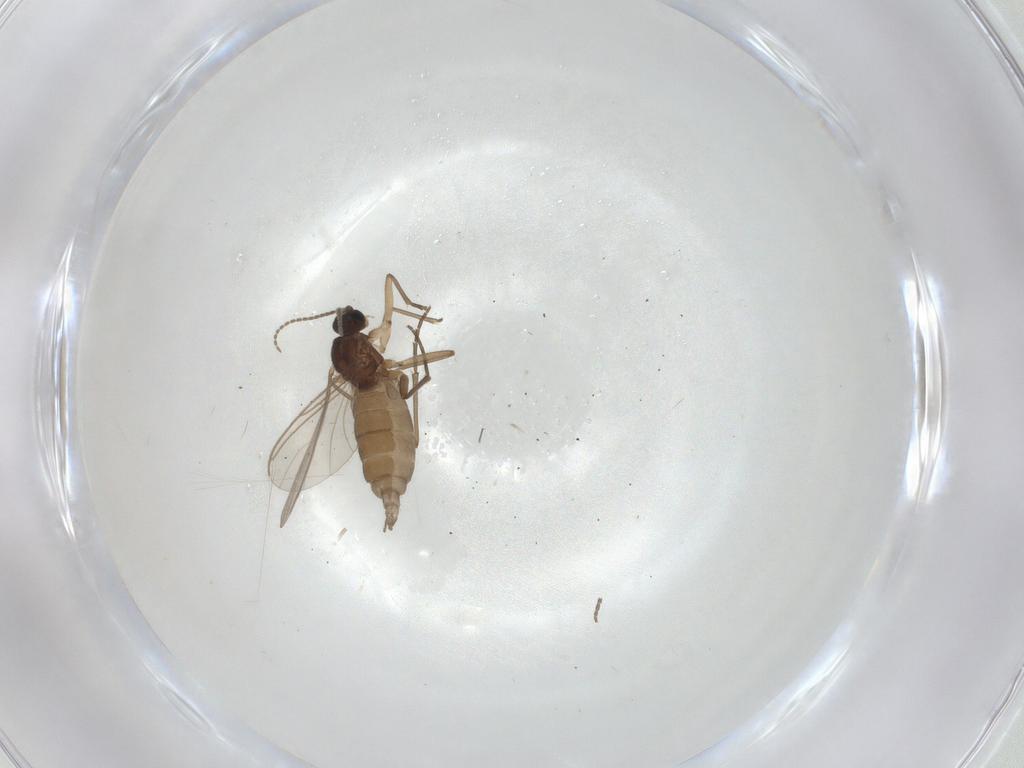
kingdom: Animalia
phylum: Arthropoda
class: Insecta
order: Diptera
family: Sciaridae
